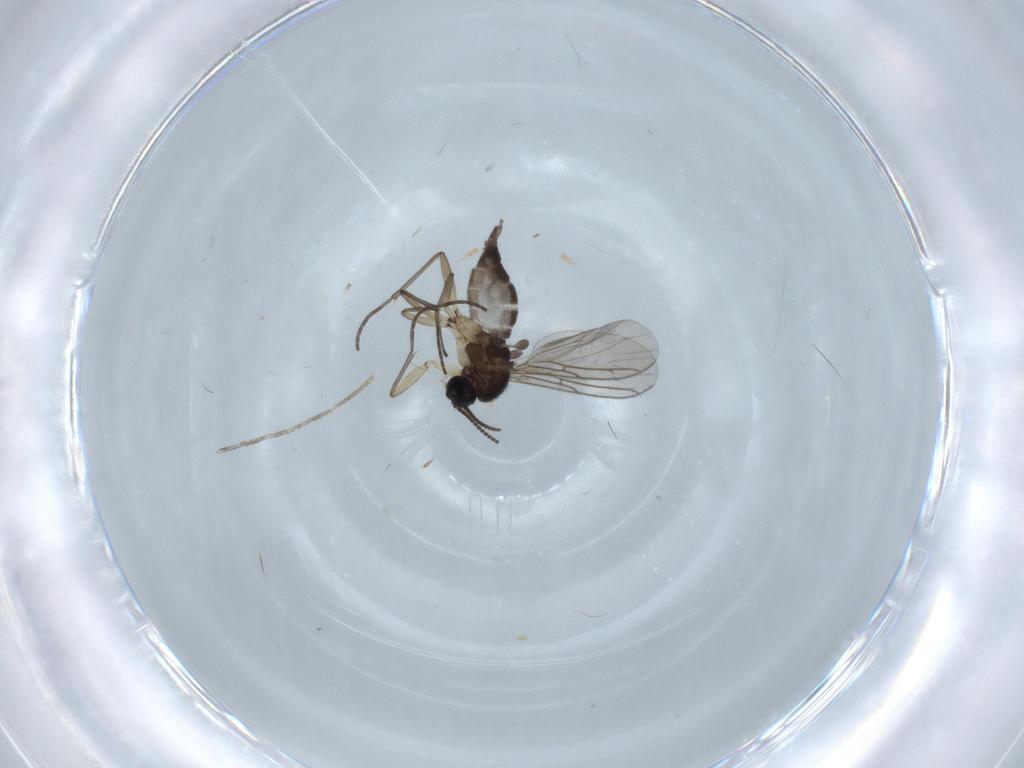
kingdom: Animalia
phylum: Arthropoda
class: Insecta
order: Diptera
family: Sciaridae
